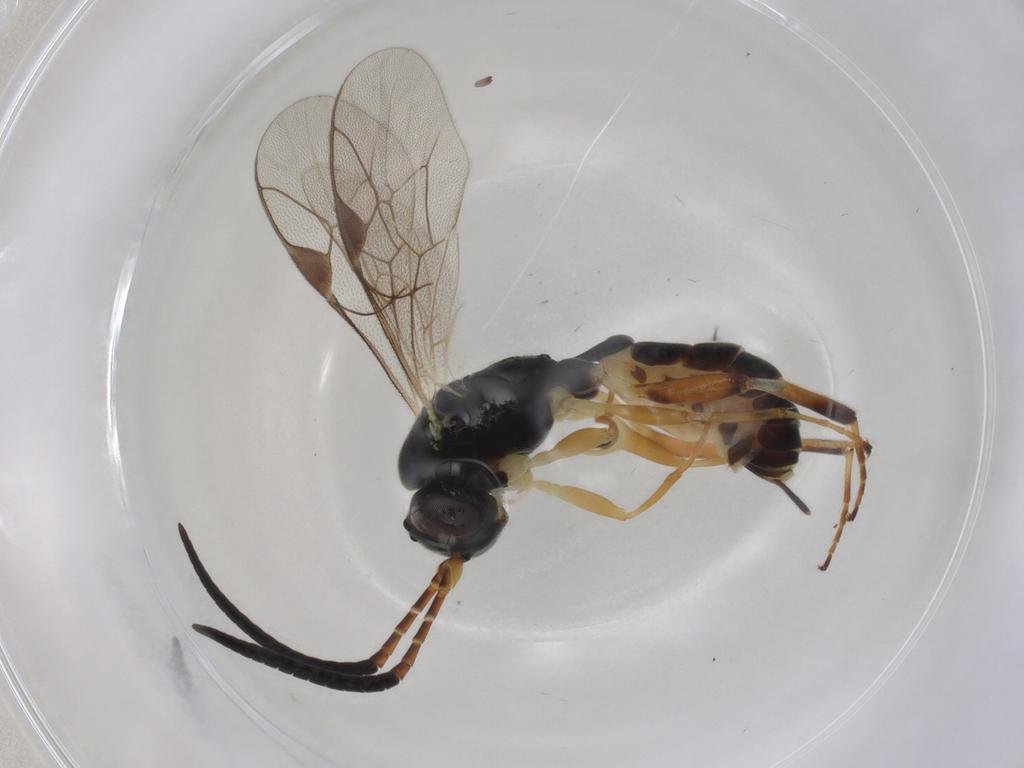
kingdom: Animalia
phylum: Arthropoda
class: Insecta
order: Hymenoptera
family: Ichneumonidae
